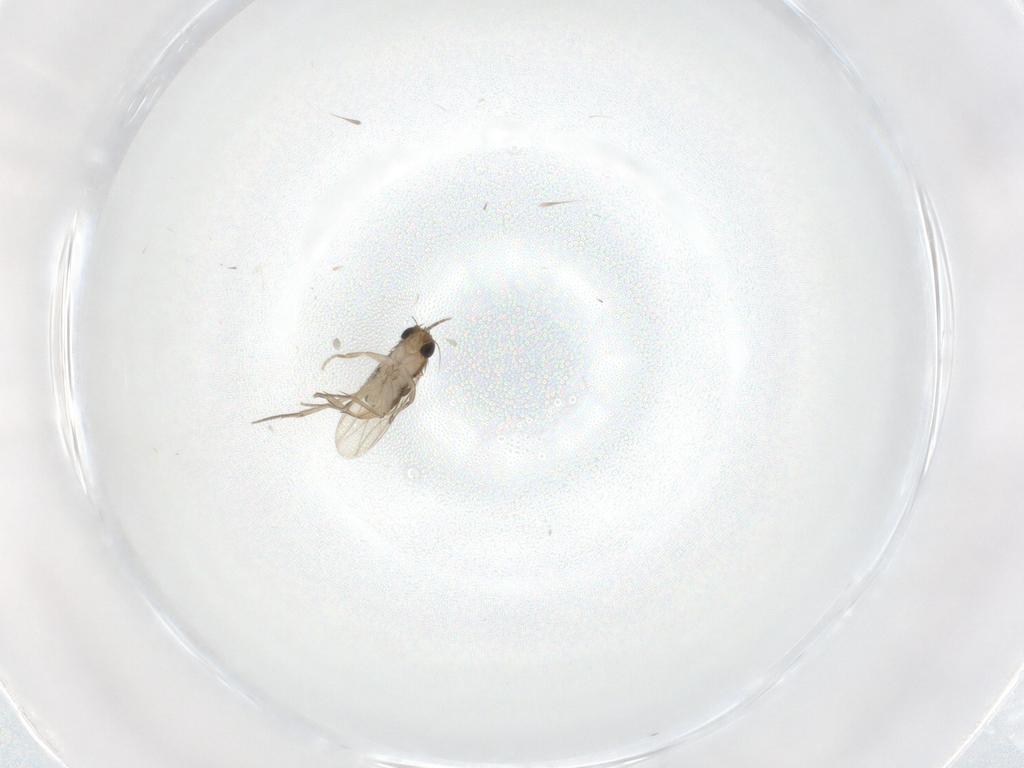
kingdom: Animalia
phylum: Arthropoda
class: Insecta
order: Diptera
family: Phoridae
